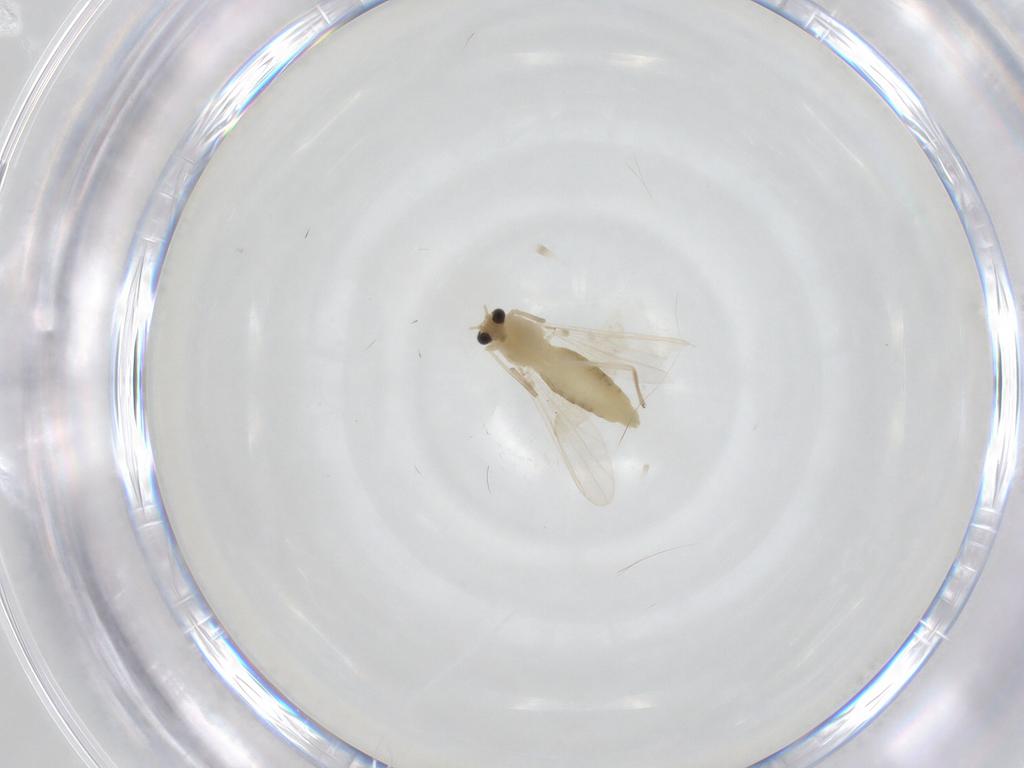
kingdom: Animalia
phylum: Arthropoda
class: Insecta
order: Diptera
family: Chironomidae
